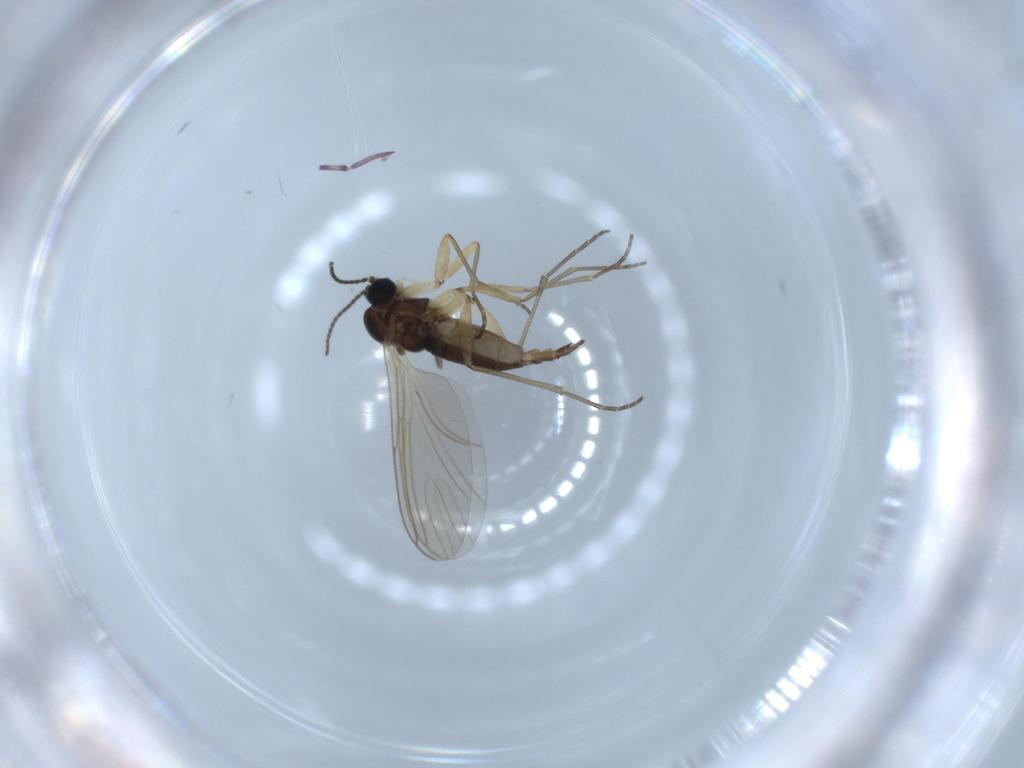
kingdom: Animalia
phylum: Arthropoda
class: Insecta
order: Diptera
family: Sciaridae
